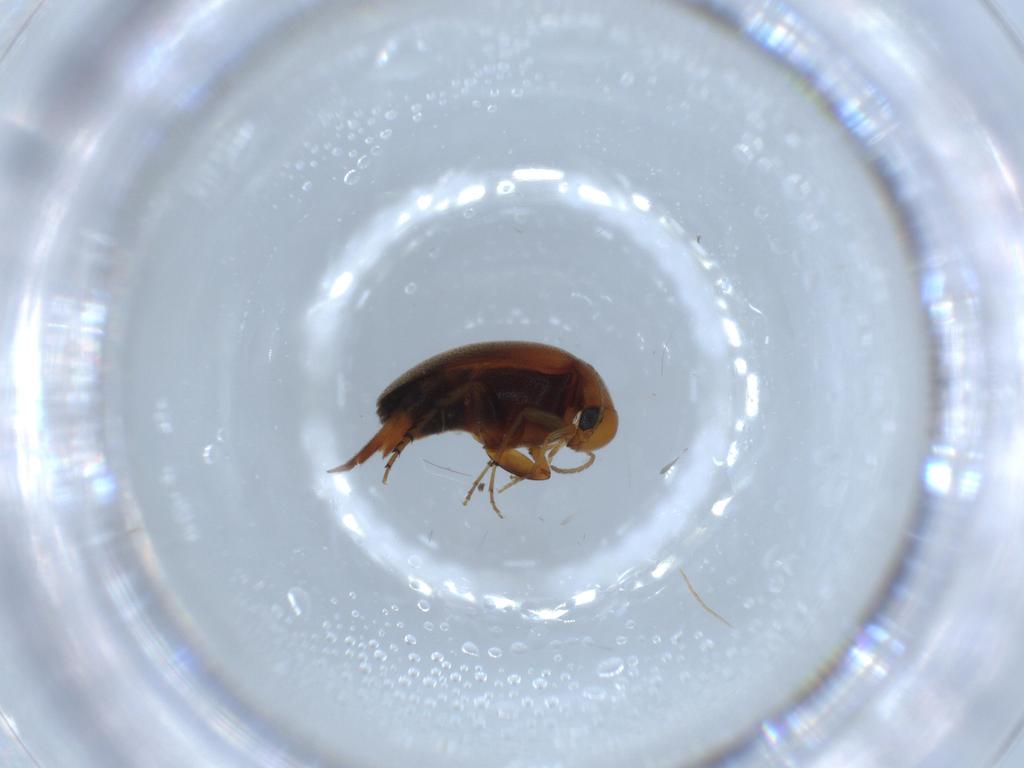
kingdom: Animalia
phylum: Arthropoda
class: Insecta
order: Coleoptera
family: Mordellidae
